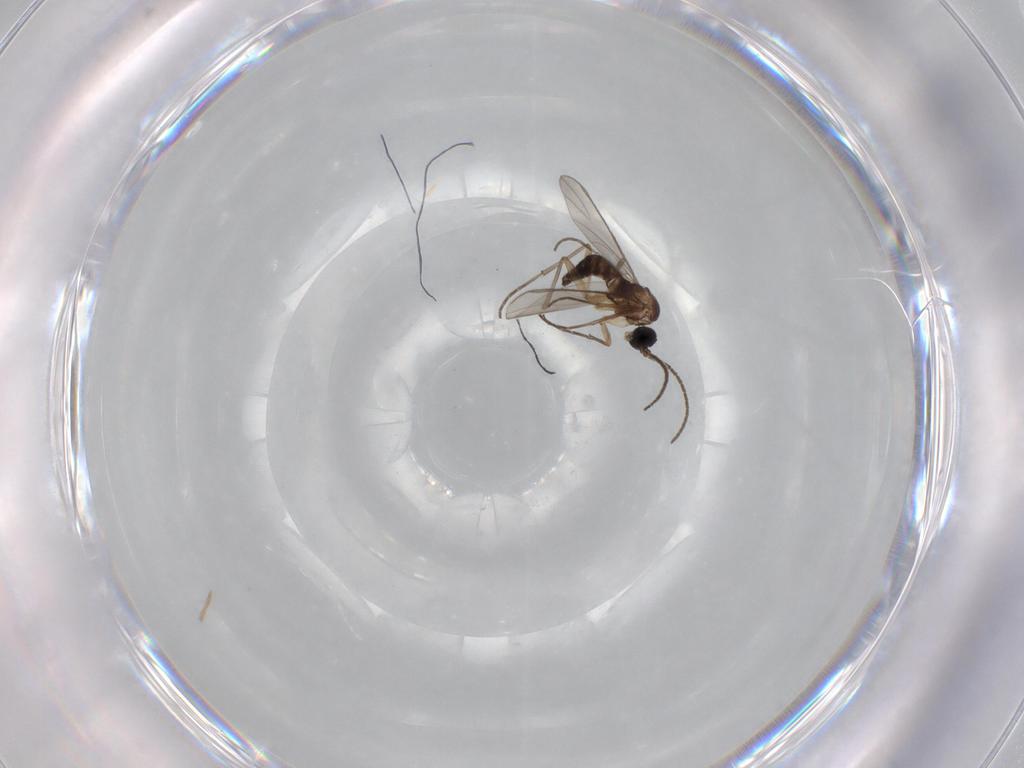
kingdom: Animalia
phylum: Arthropoda
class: Insecta
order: Diptera
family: Sciaridae
